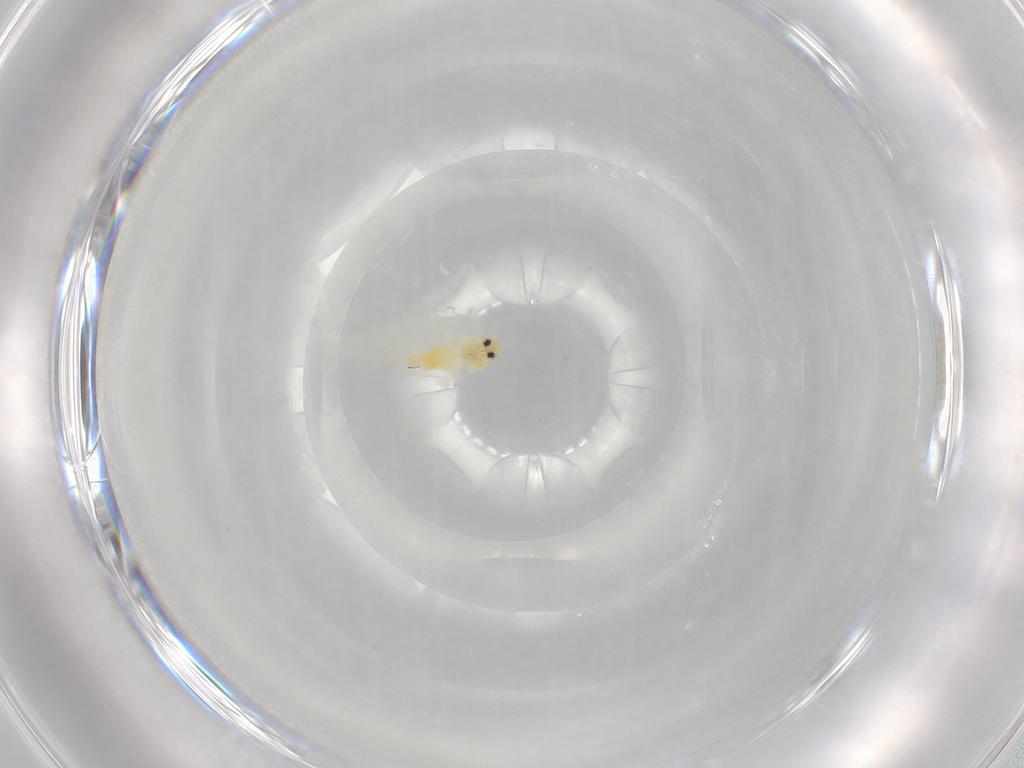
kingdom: Animalia
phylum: Arthropoda
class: Insecta
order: Hemiptera
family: Aleyrodidae
